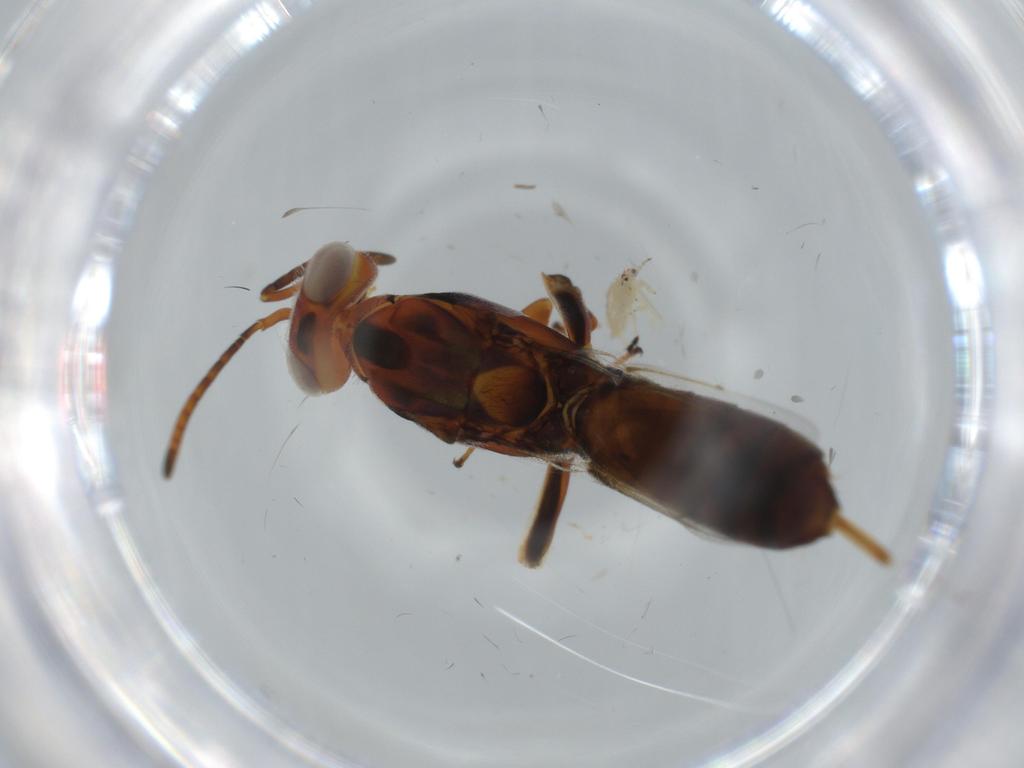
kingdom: Animalia
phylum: Arthropoda
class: Insecta
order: Hymenoptera
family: Eupelmidae
